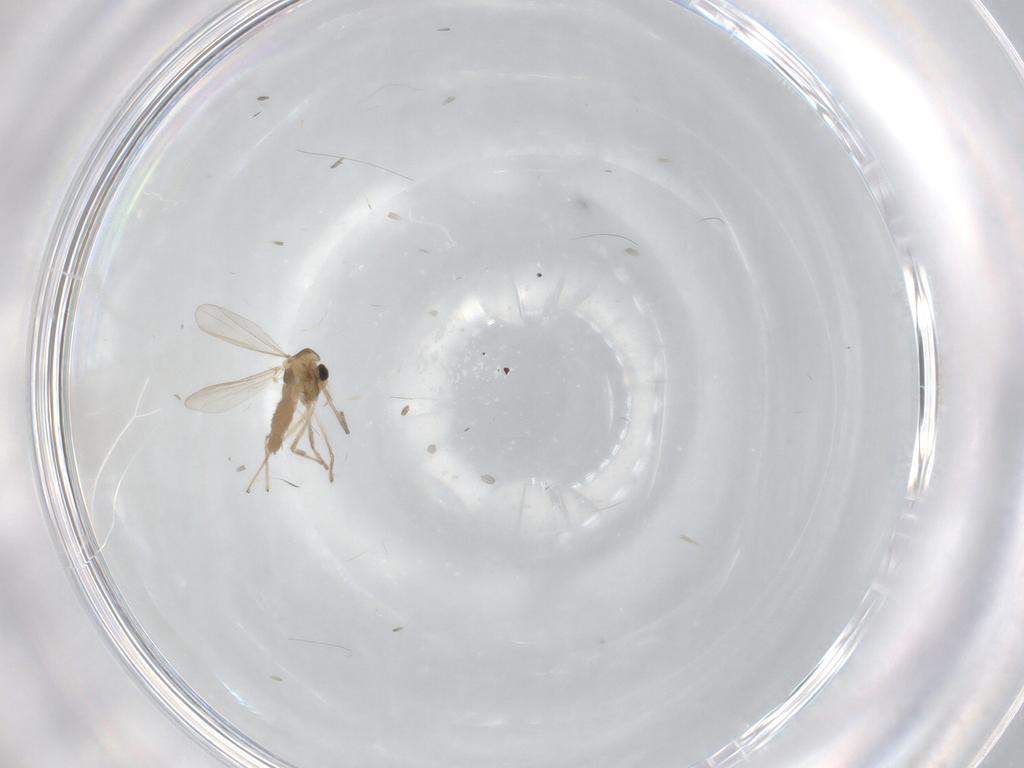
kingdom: Animalia
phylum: Arthropoda
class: Insecta
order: Diptera
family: Chironomidae
